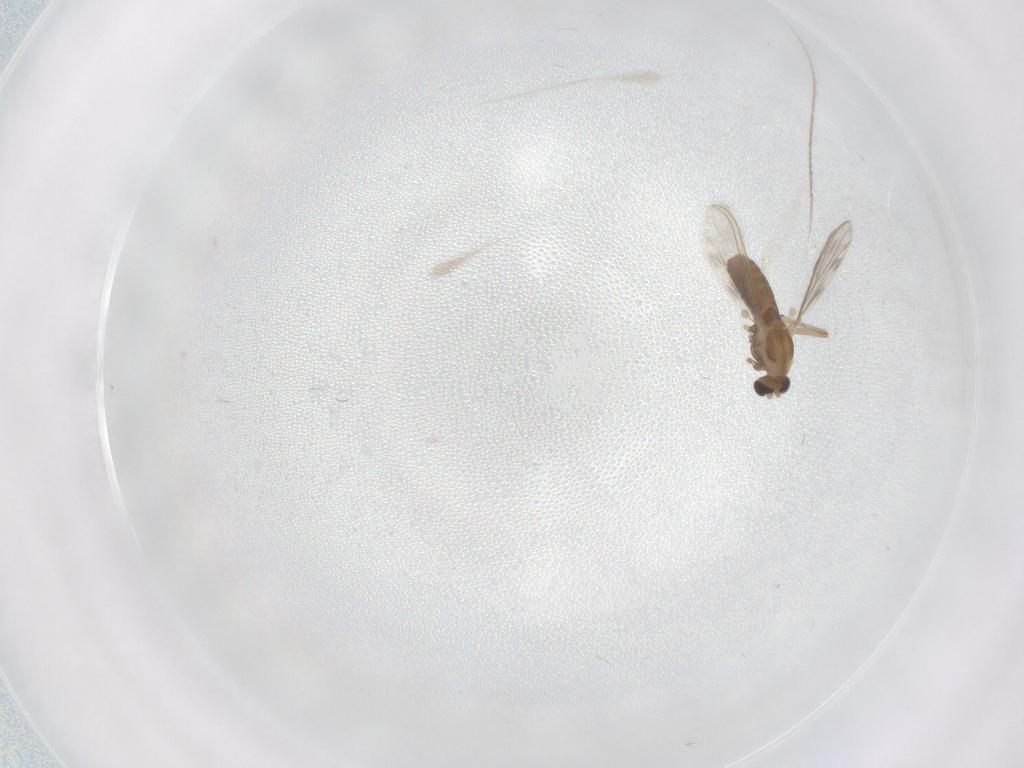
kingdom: Animalia
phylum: Arthropoda
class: Insecta
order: Diptera
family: Chironomidae
